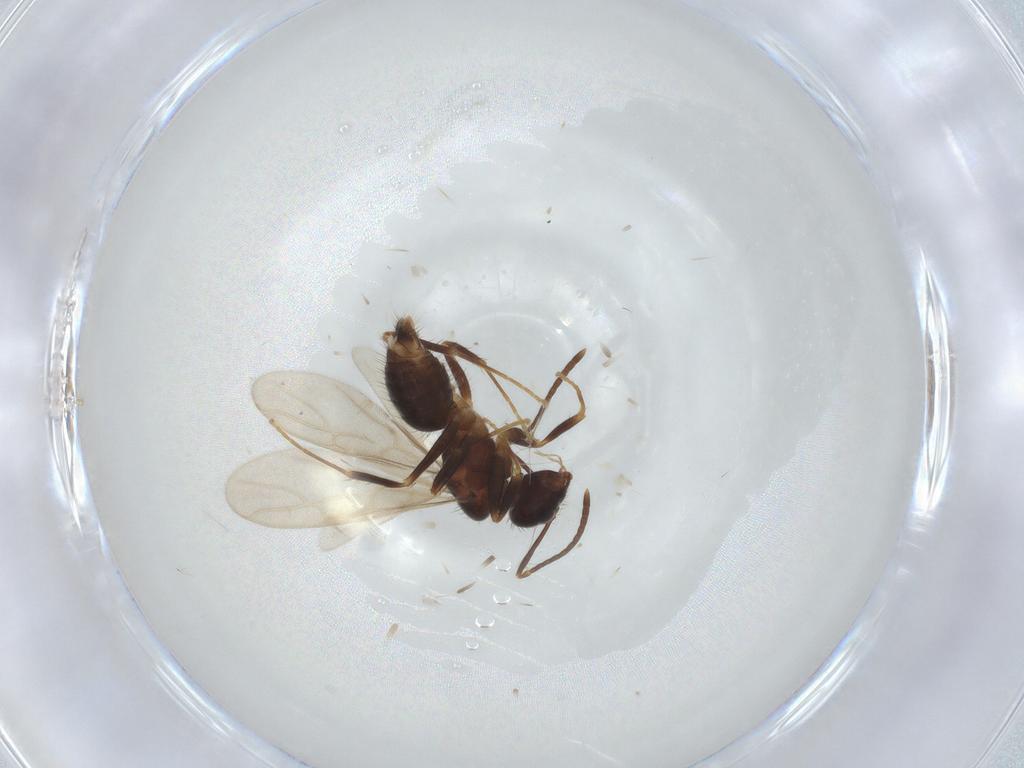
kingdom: Animalia
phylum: Arthropoda
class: Insecta
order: Hymenoptera
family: Formicidae
